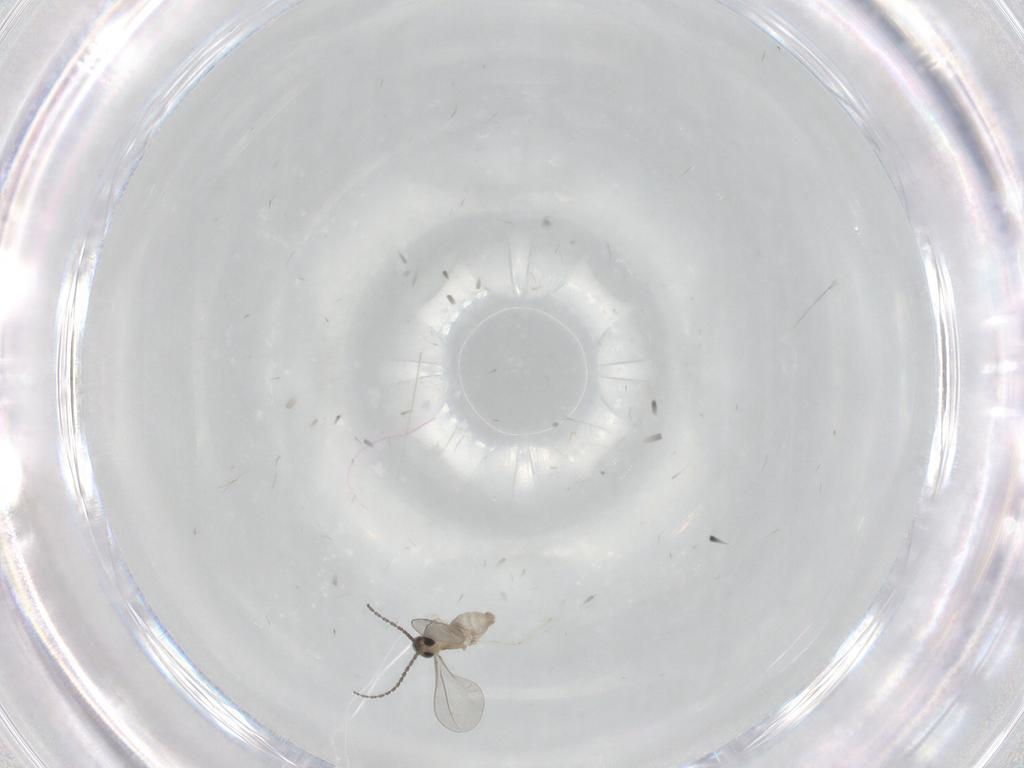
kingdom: Animalia
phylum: Arthropoda
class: Insecta
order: Diptera
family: Cecidomyiidae
